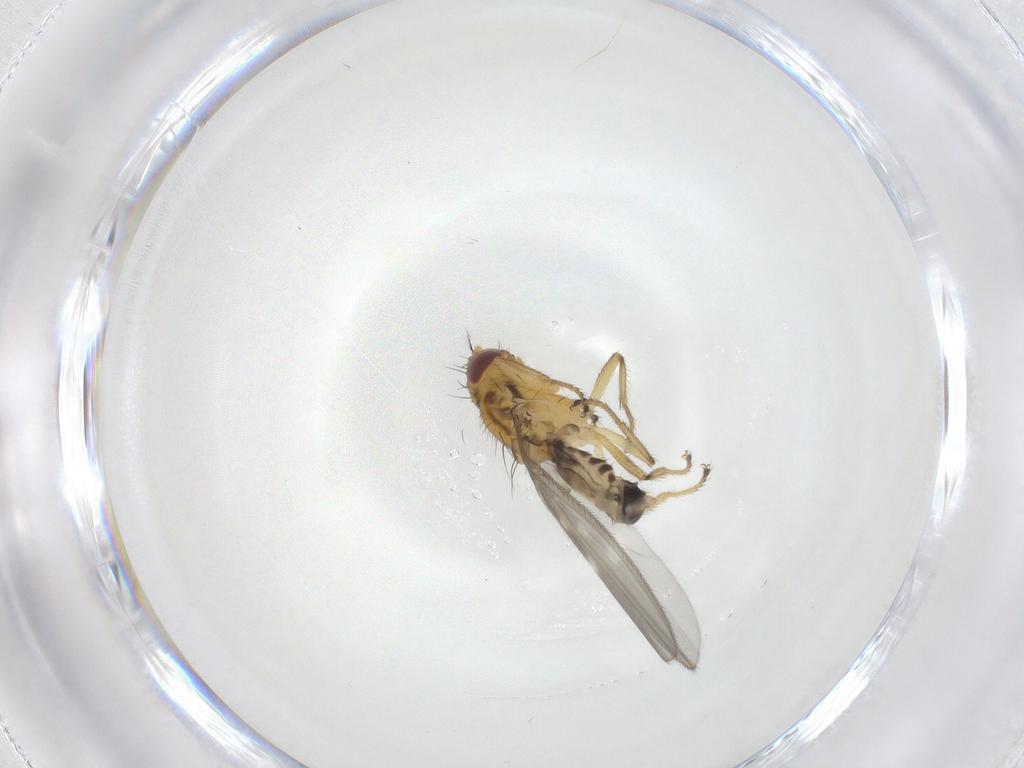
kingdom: Animalia
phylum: Arthropoda
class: Insecta
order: Diptera
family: Periscelididae
